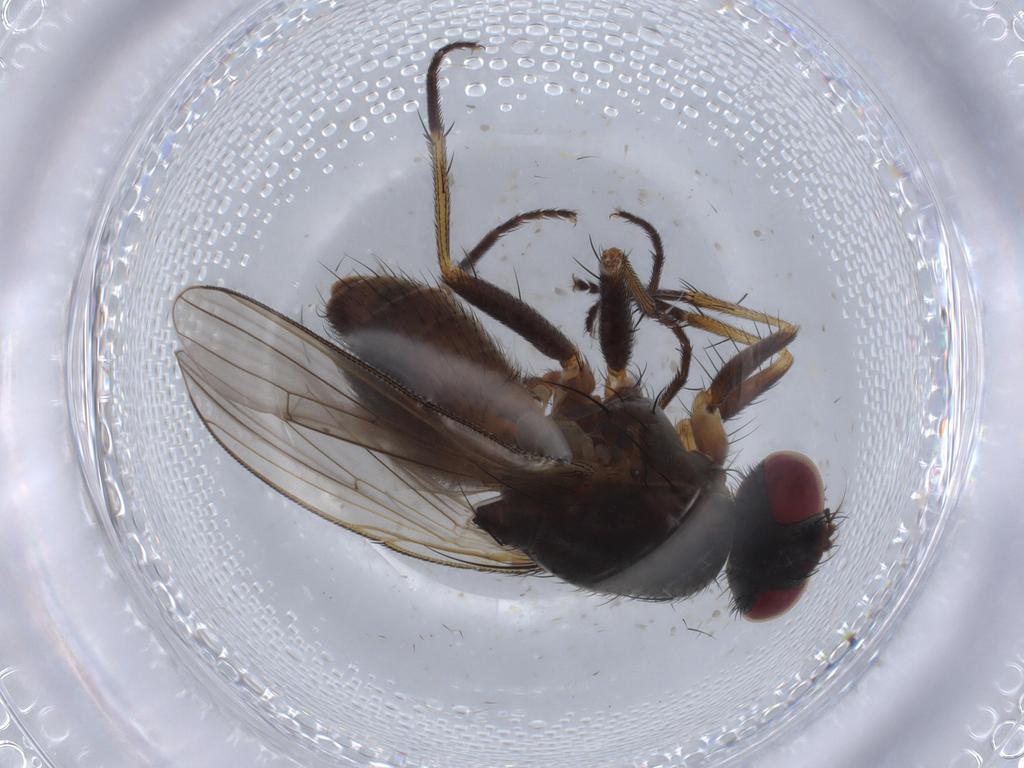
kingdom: Animalia
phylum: Arthropoda
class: Insecta
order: Diptera
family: Muscidae
